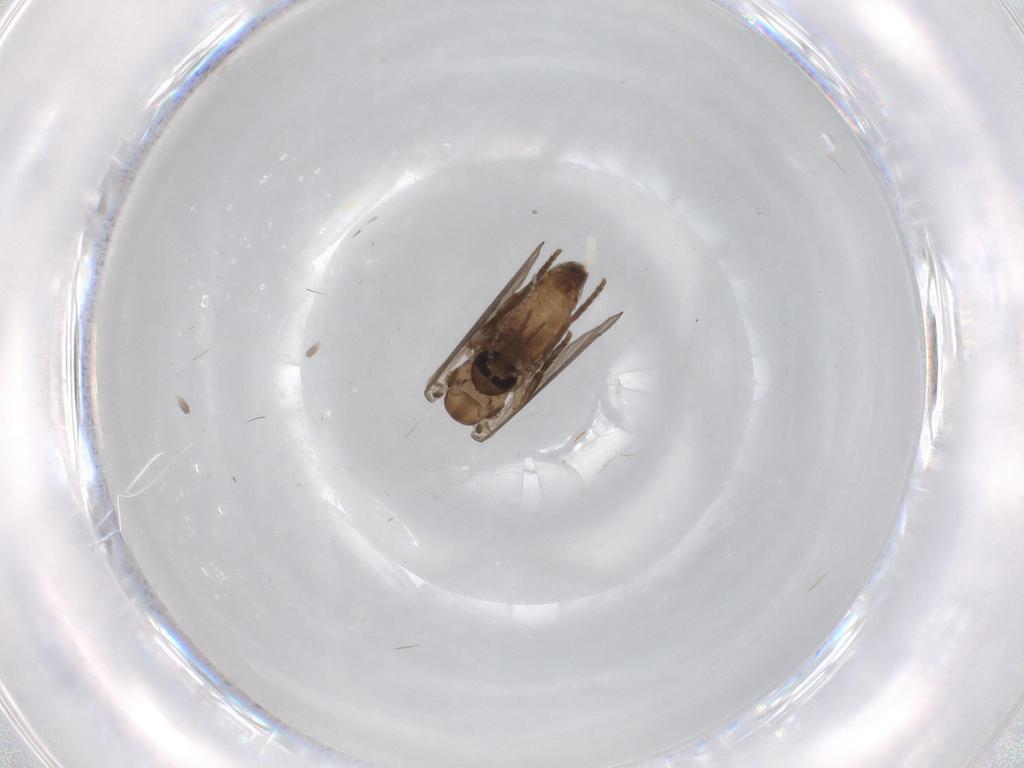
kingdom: Animalia
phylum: Arthropoda
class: Insecta
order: Diptera
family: Psychodidae
